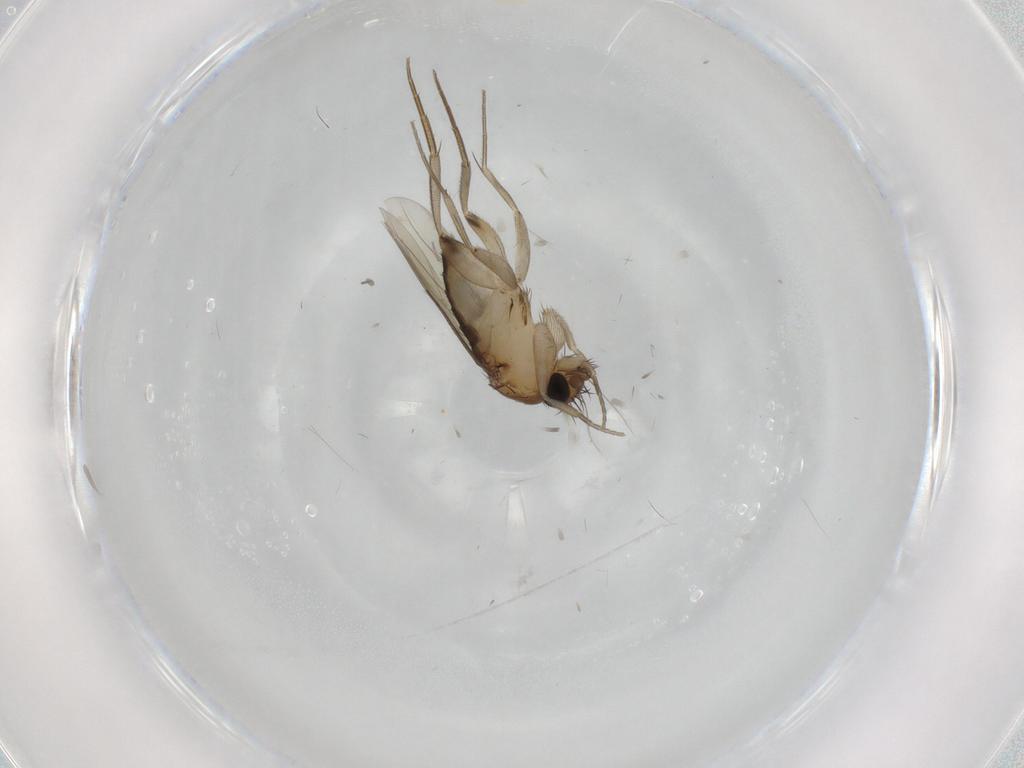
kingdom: Animalia
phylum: Arthropoda
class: Insecta
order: Diptera
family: Phoridae
